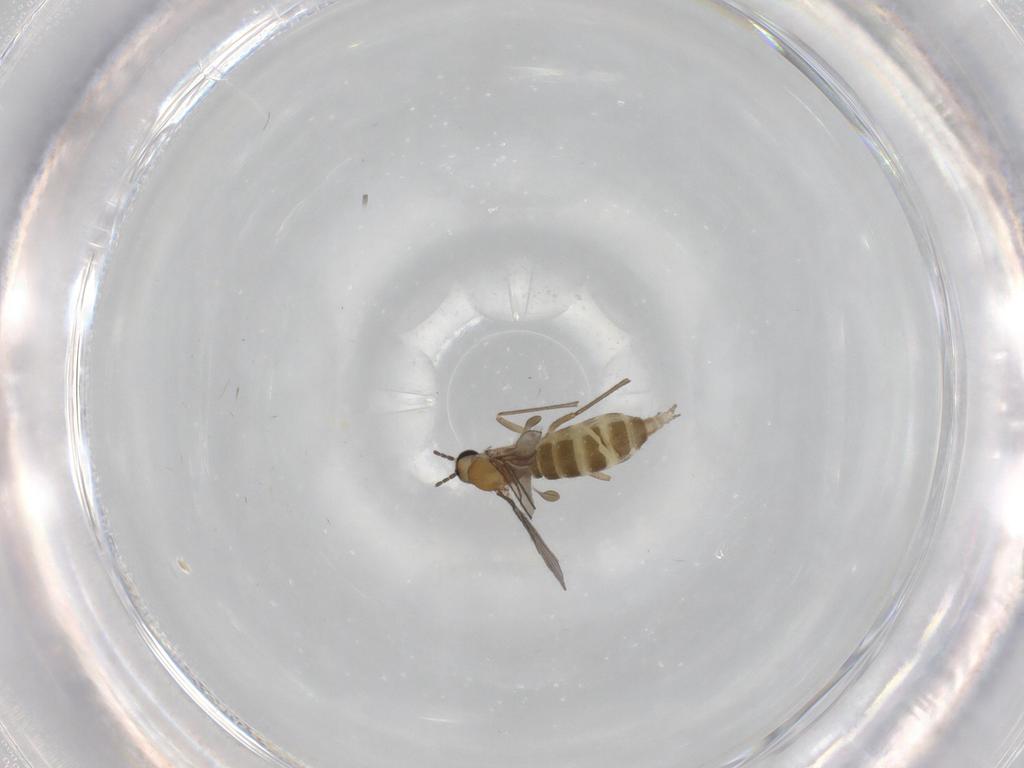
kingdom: Animalia
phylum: Arthropoda
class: Insecta
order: Diptera
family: Sciaridae
